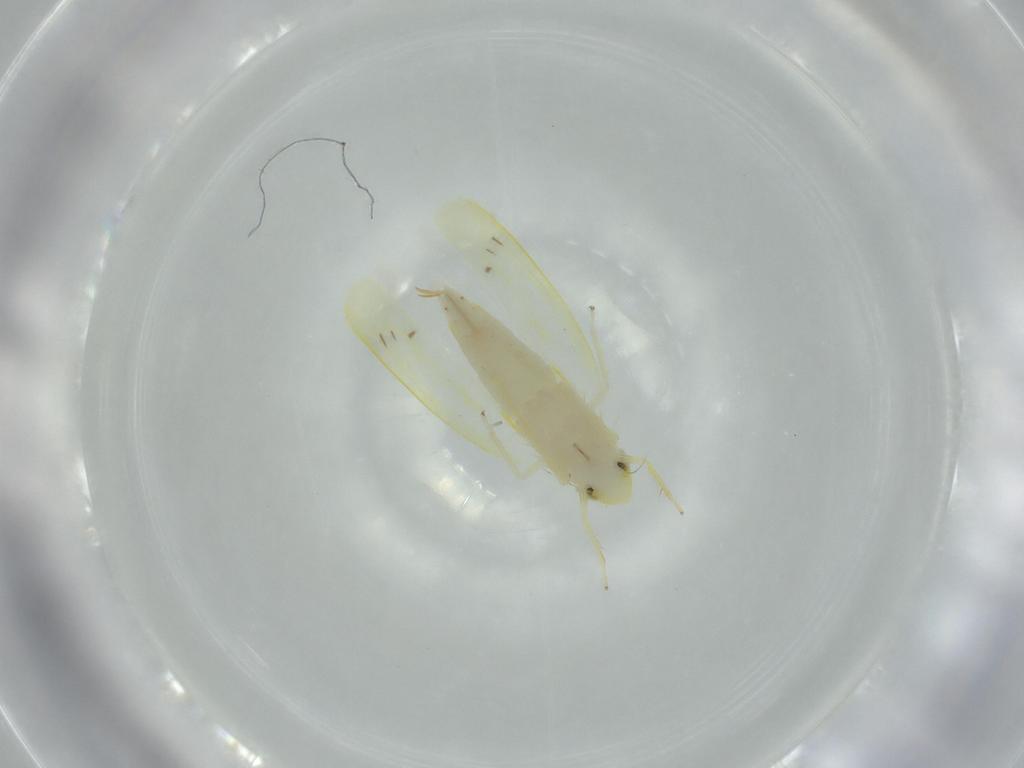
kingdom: Animalia
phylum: Arthropoda
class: Insecta
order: Hemiptera
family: Cicadellidae
